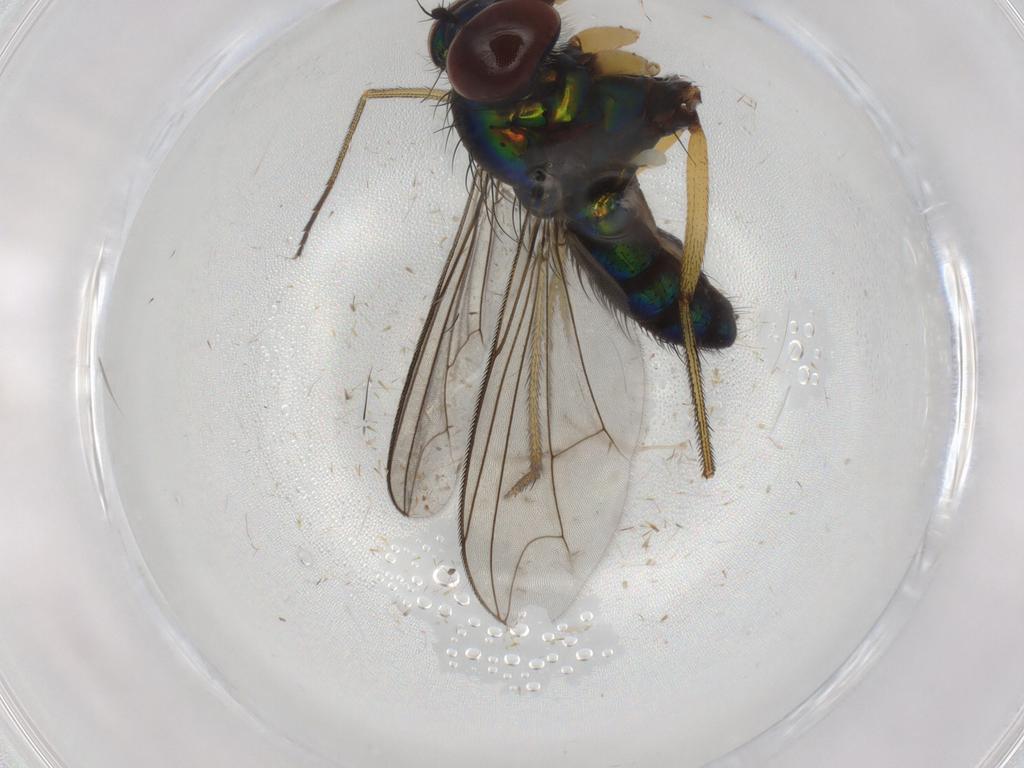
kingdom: Animalia
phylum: Arthropoda
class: Insecta
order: Diptera
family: Dolichopodidae
